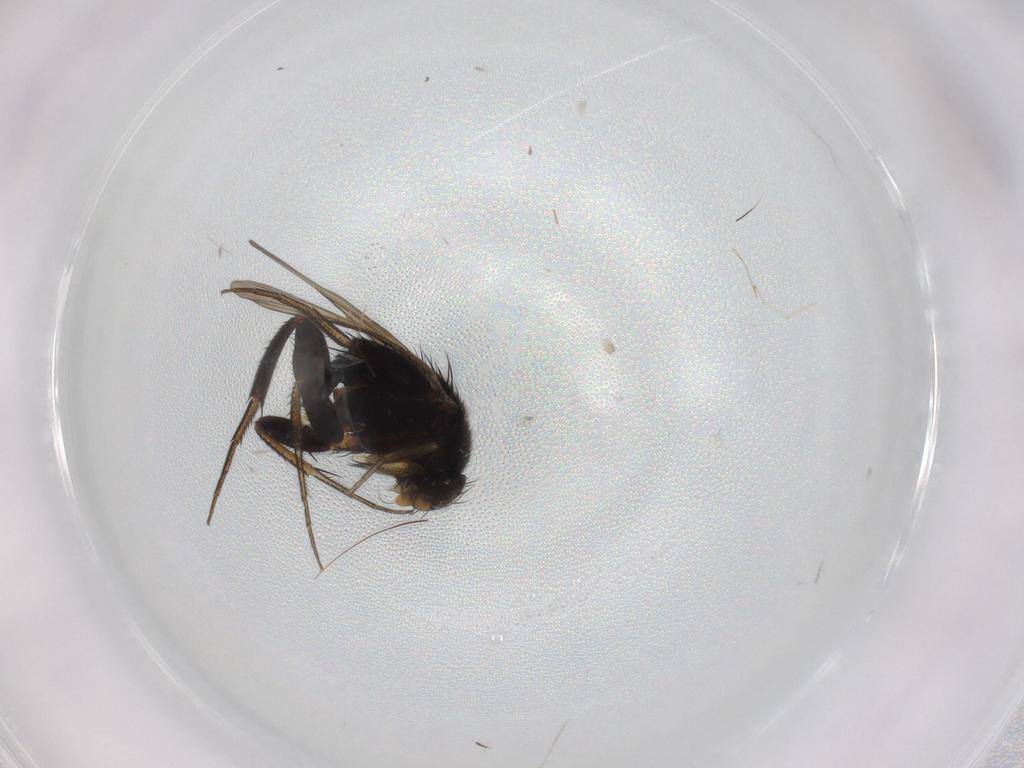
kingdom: Animalia
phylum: Arthropoda
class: Insecta
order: Diptera
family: Phoridae
